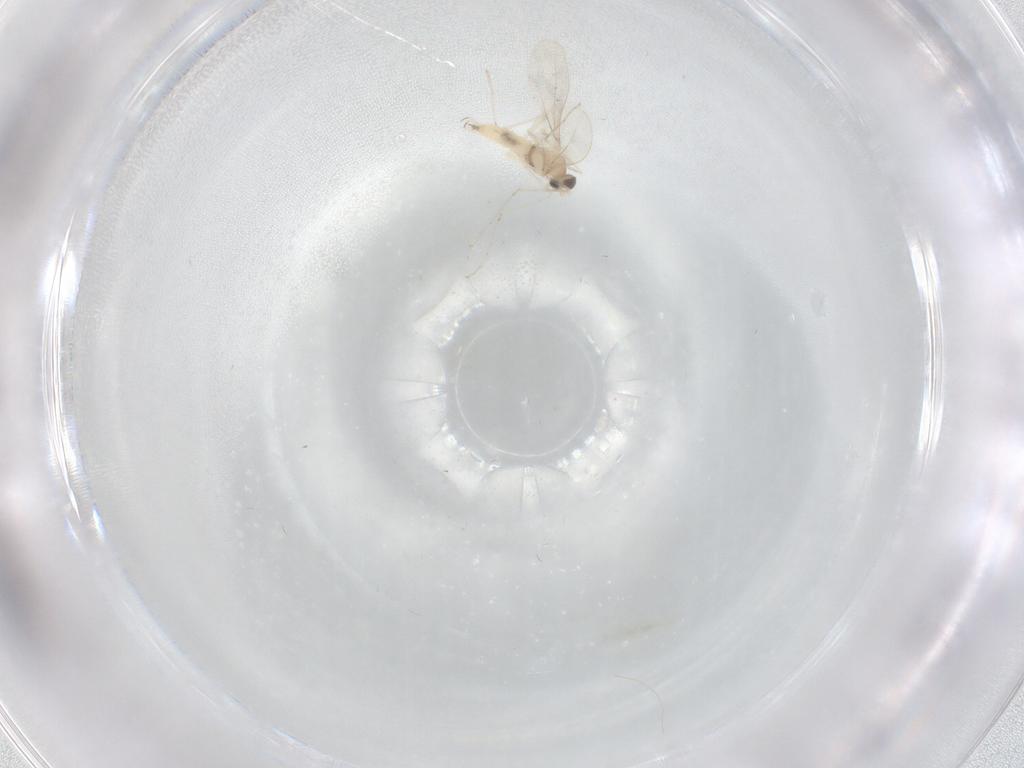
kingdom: Animalia
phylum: Arthropoda
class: Insecta
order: Diptera
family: Cecidomyiidae
